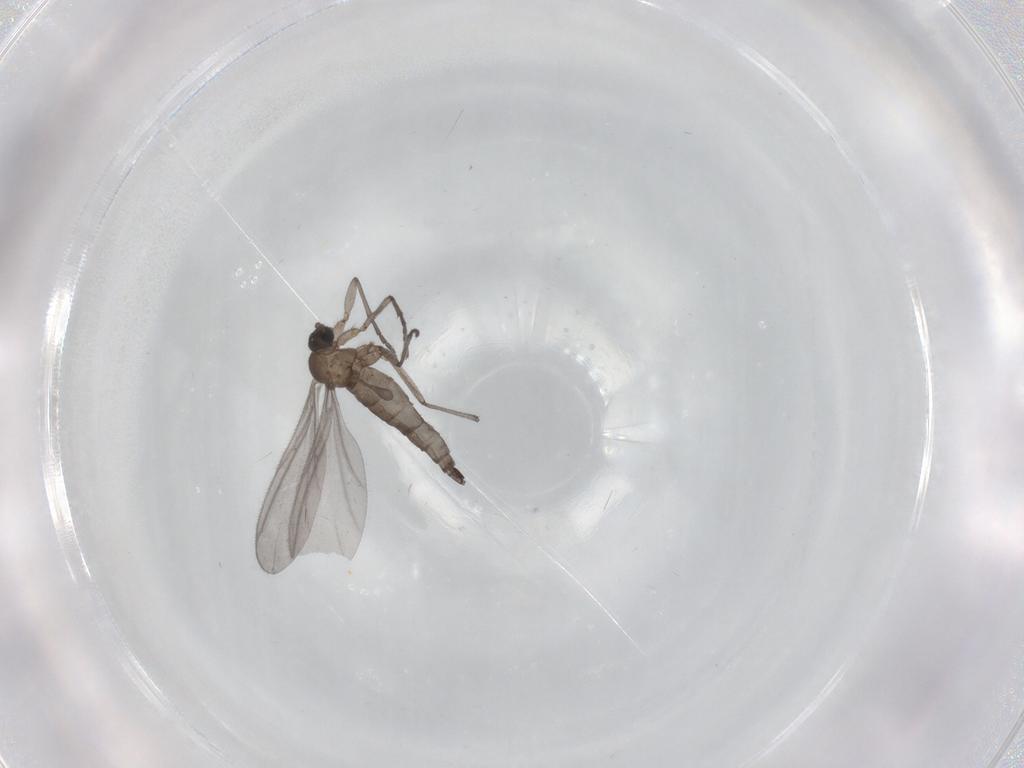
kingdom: Animalia
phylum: Arthropoda
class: Insecta
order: Diptera
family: Sciaridae
